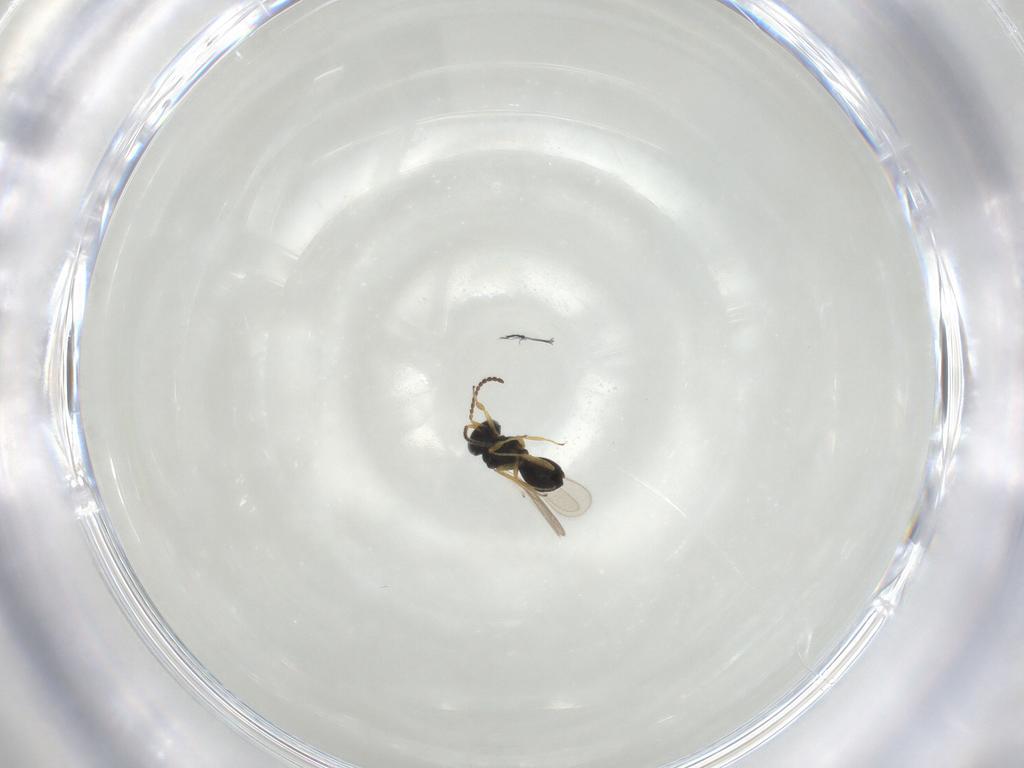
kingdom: Animalia
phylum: Arthropoda
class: Insecta
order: Hymenoptera
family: Scelionidae
